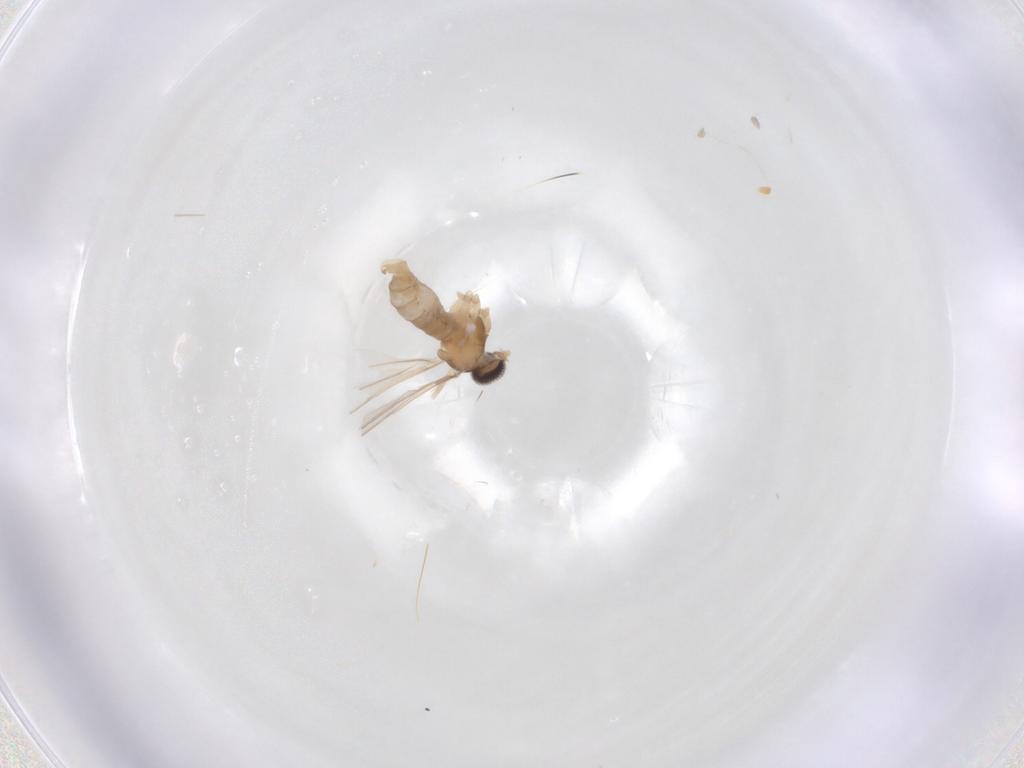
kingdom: Animalia
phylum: Arthropoda
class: Insecta
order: Diptera
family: Cecidomyiidae
